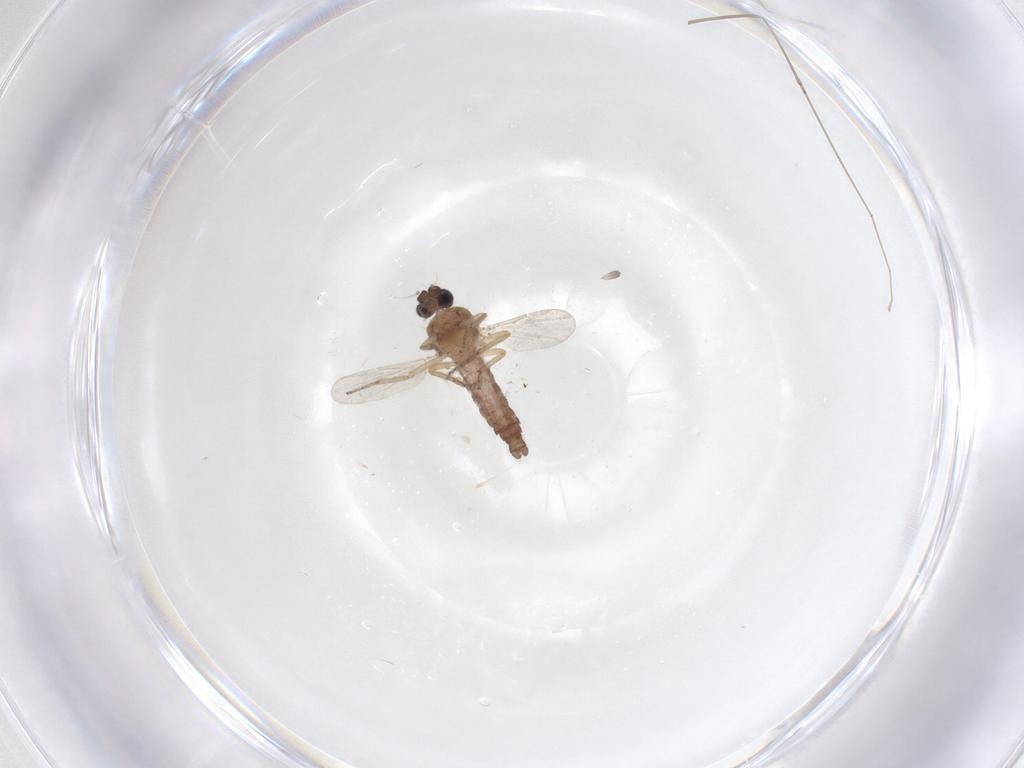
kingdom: Animalia
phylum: Arthropoda
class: Insecta
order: Diptera
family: Ceratopogonidae
